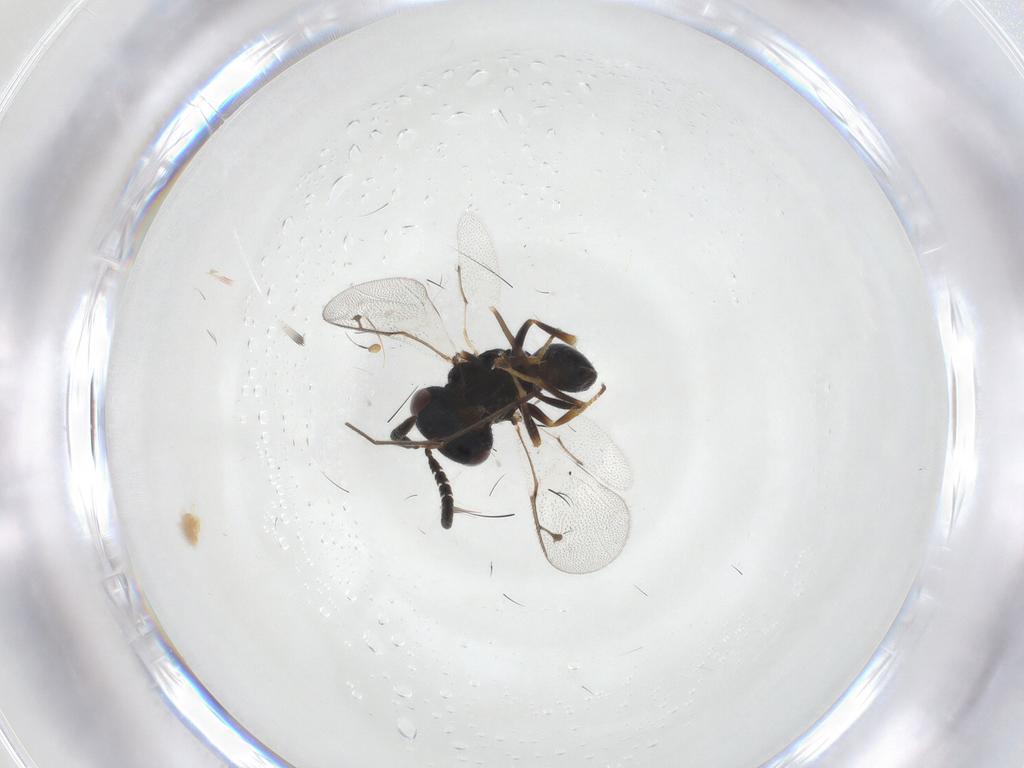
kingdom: Animalia
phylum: Arthropoda
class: Insecta
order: Hymenoptera
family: Pteromalidae
